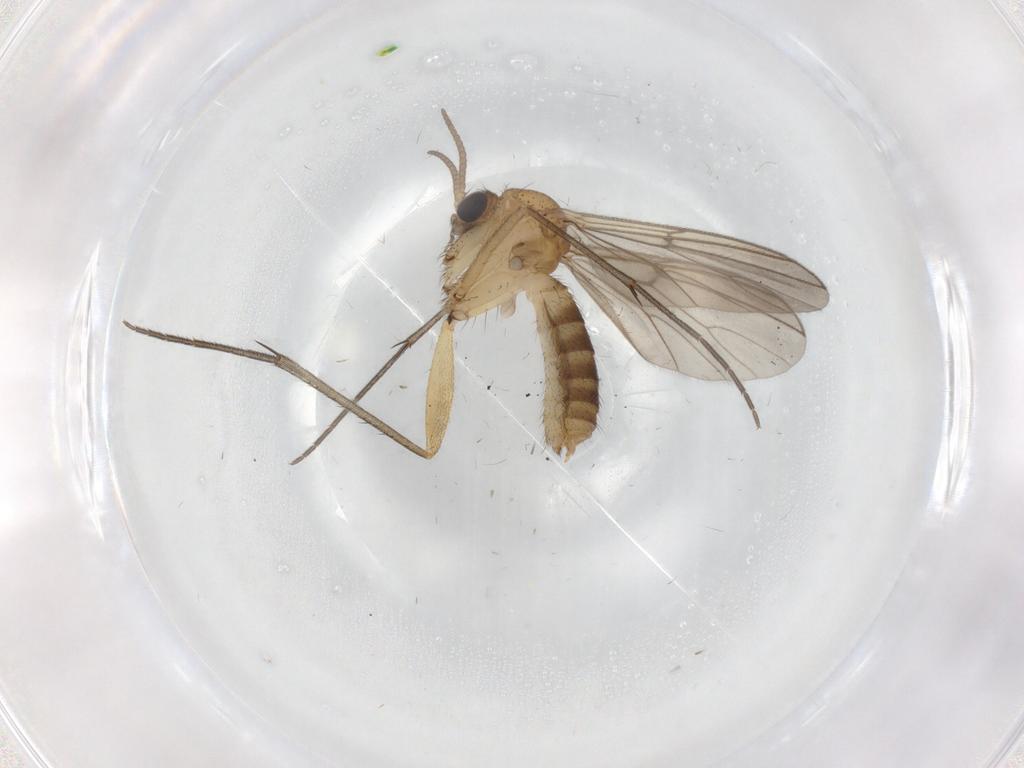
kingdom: Animalia
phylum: Arthropoda
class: Insecta
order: Diptera
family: Mycetophilidae
